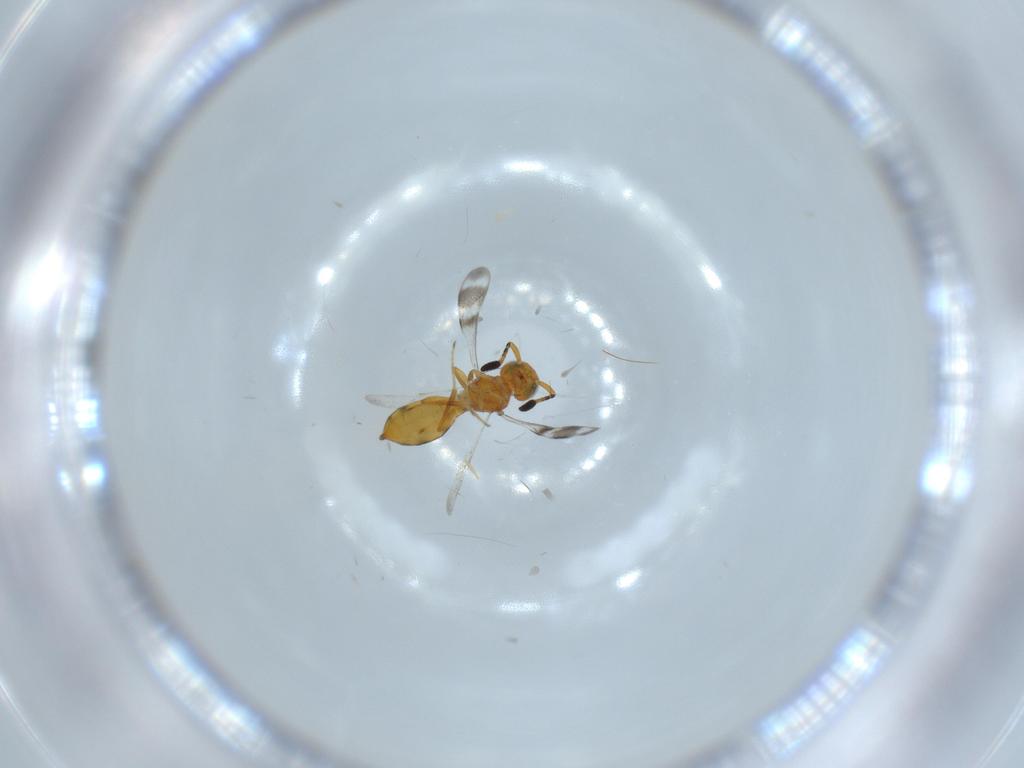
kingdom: Animalia
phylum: Arthropoda
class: Insecta
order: Hymenoptera
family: Scelionidae
